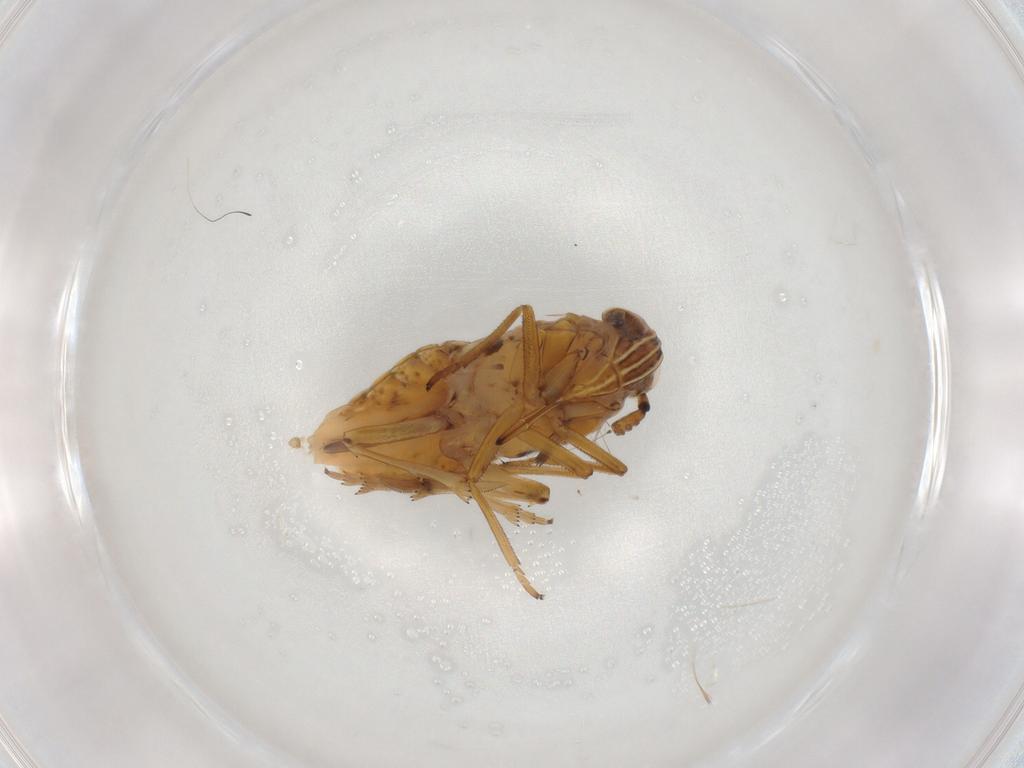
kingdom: Animalia
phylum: Arthropoda
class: Insecta
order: Hemiptera
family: Delphacidae
